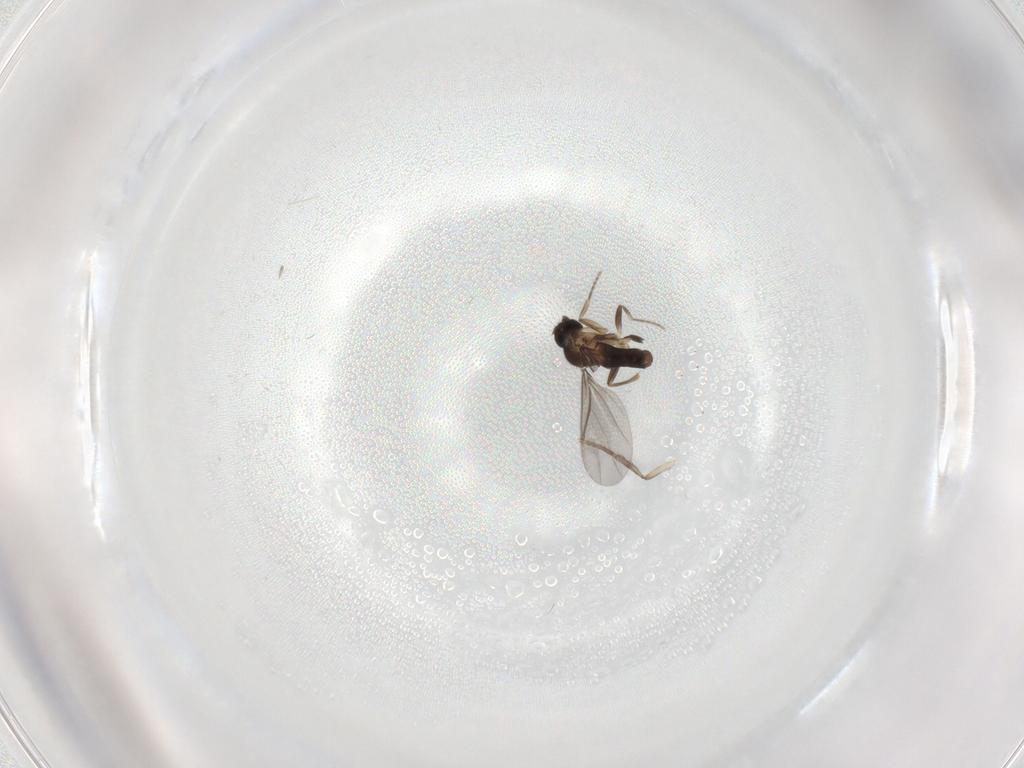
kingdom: Animalia
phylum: Arthropoda
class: Insecta
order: Diptera
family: Psychodidae
